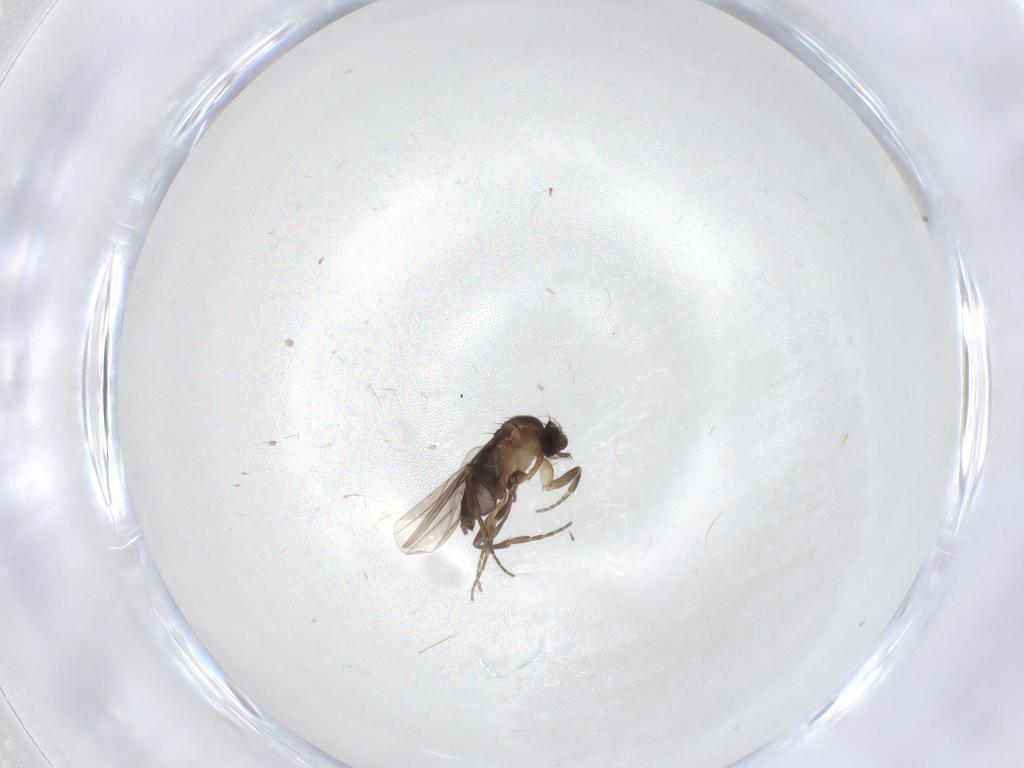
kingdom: Animalia
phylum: Arthropoda
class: Insecta
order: Diptera
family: Phoridae
